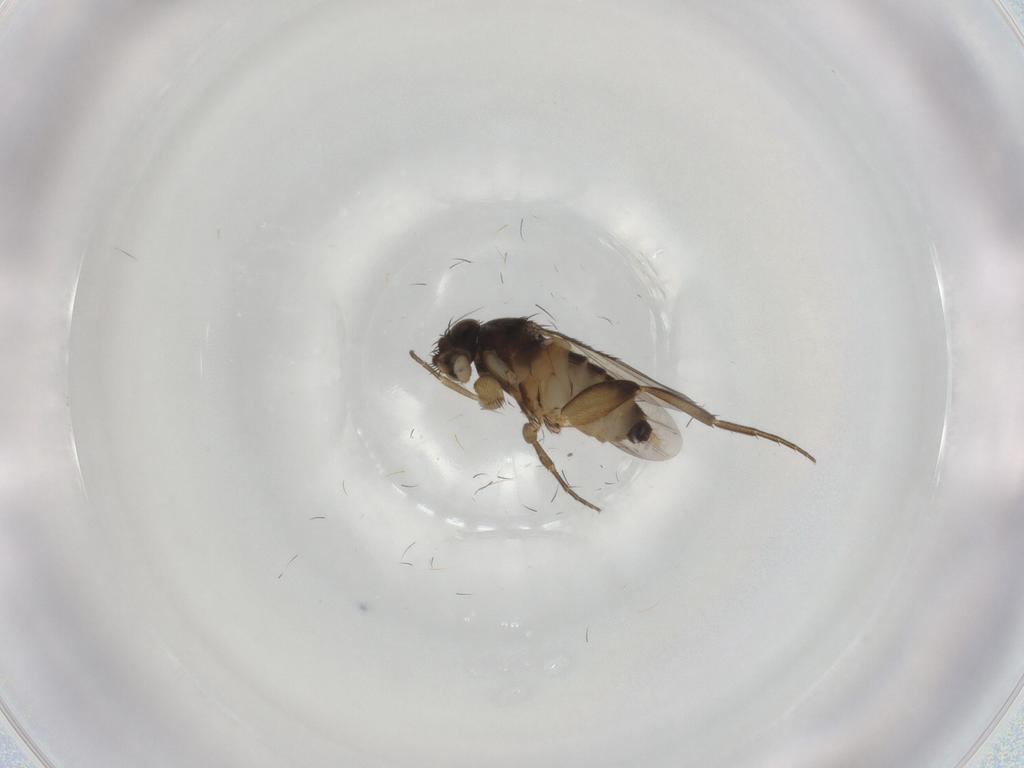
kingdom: Animalia
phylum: Arthropoda
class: Insecta
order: Diptera
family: Phoridae
